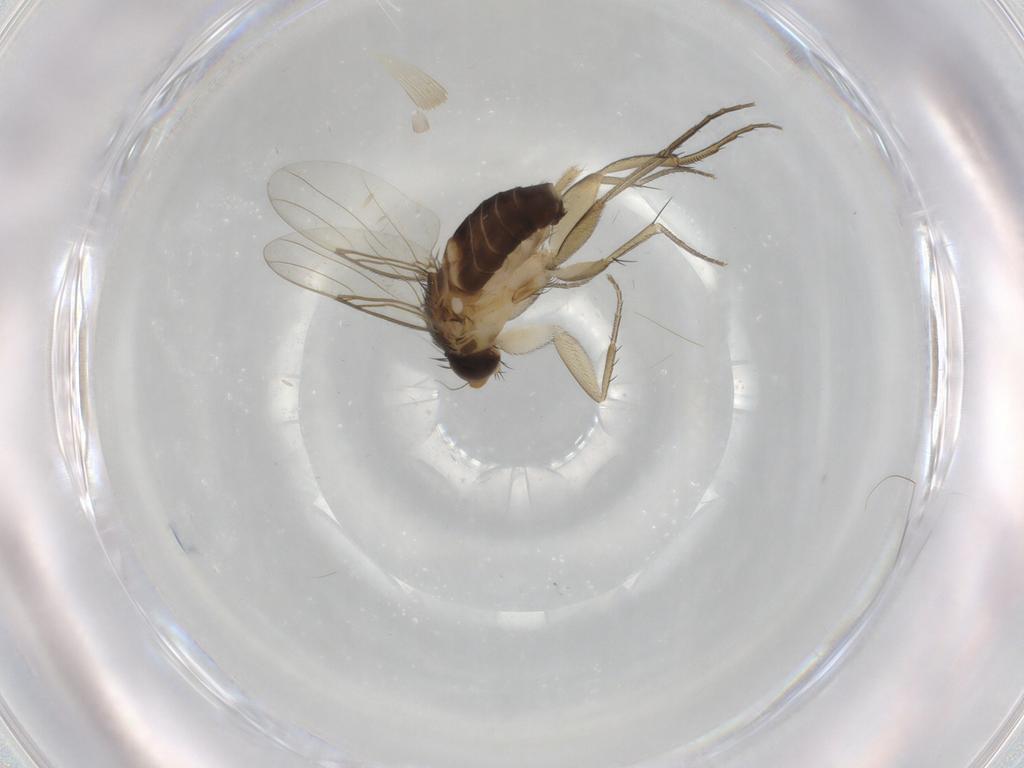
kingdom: Animalia
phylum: Arthropoda
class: Insecta
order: Diptera
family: Phoridae
